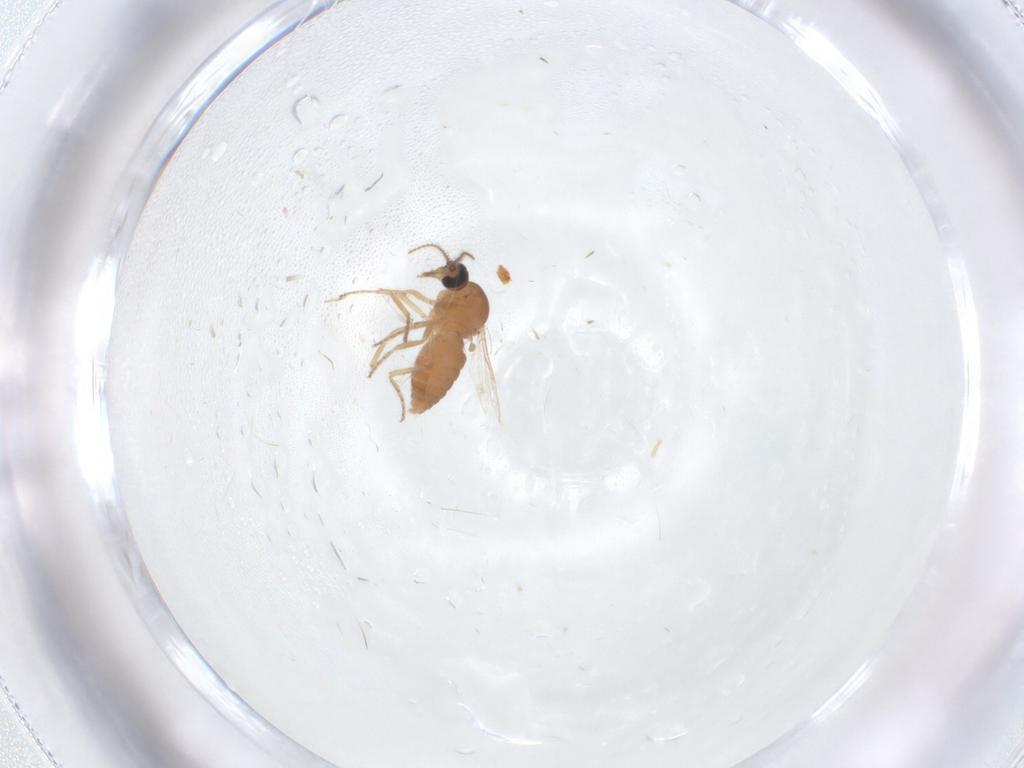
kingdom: Animalia
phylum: Arthropoda
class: Insecta
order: Diptera
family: Ceratopogonidae
